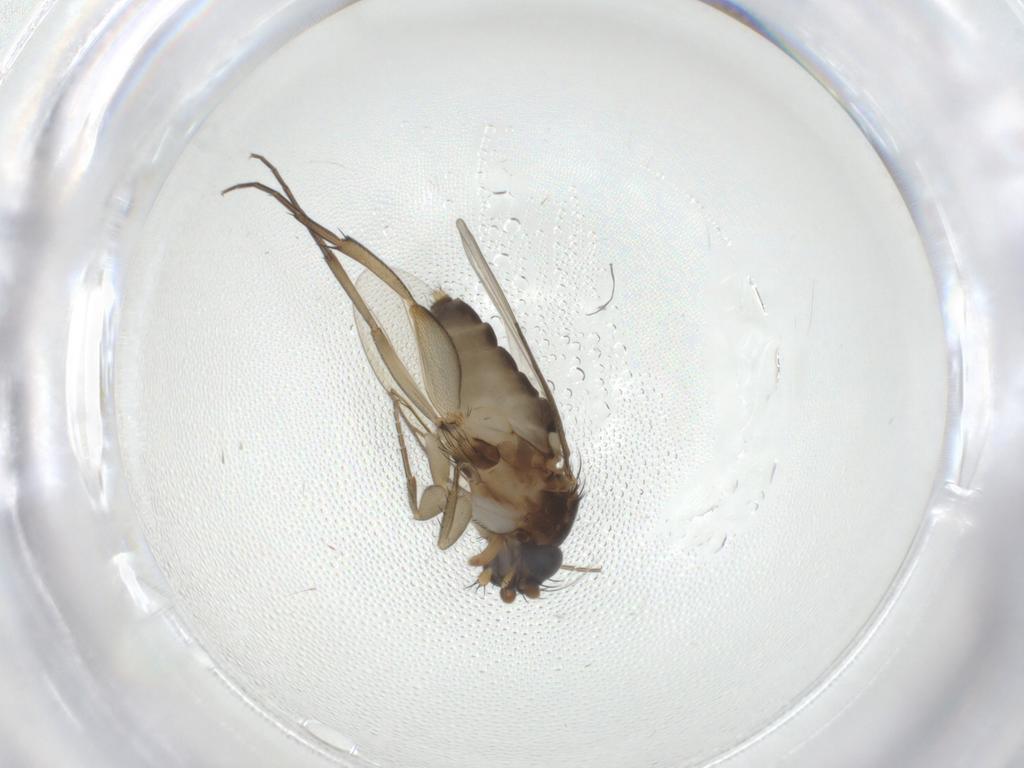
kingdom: Animalia
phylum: Arthropoda
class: Insecta
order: Diptera
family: Phoridae
